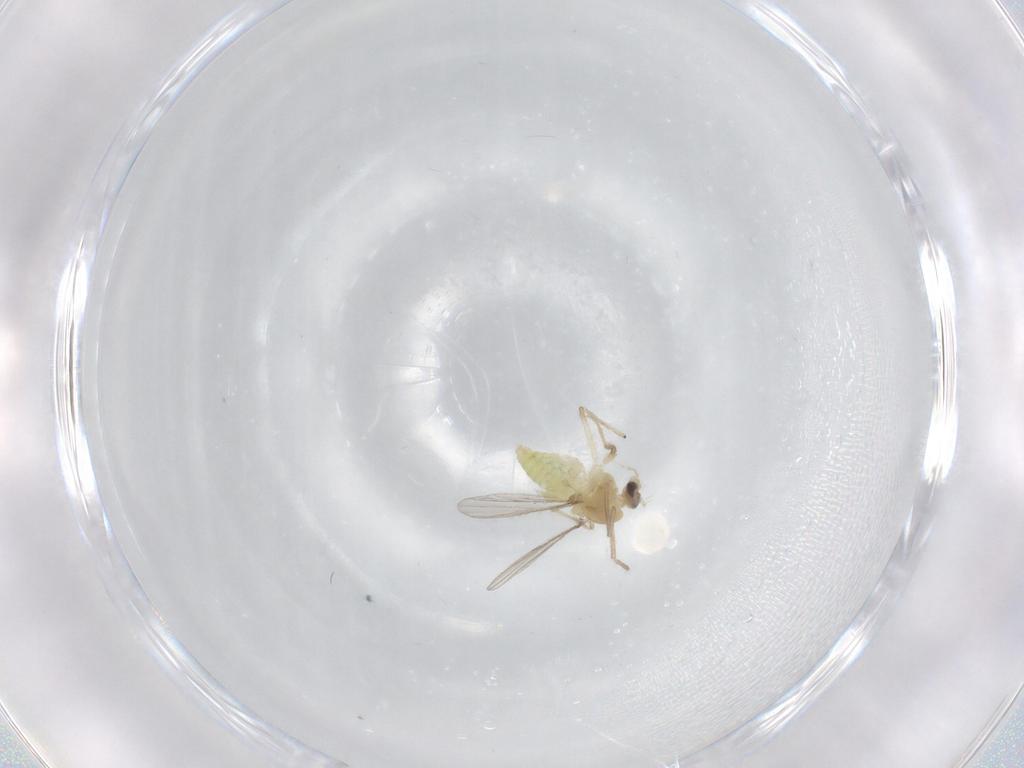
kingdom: Animalia
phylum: Arthropoda
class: Insecta
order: Diptera
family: Chironomidae
